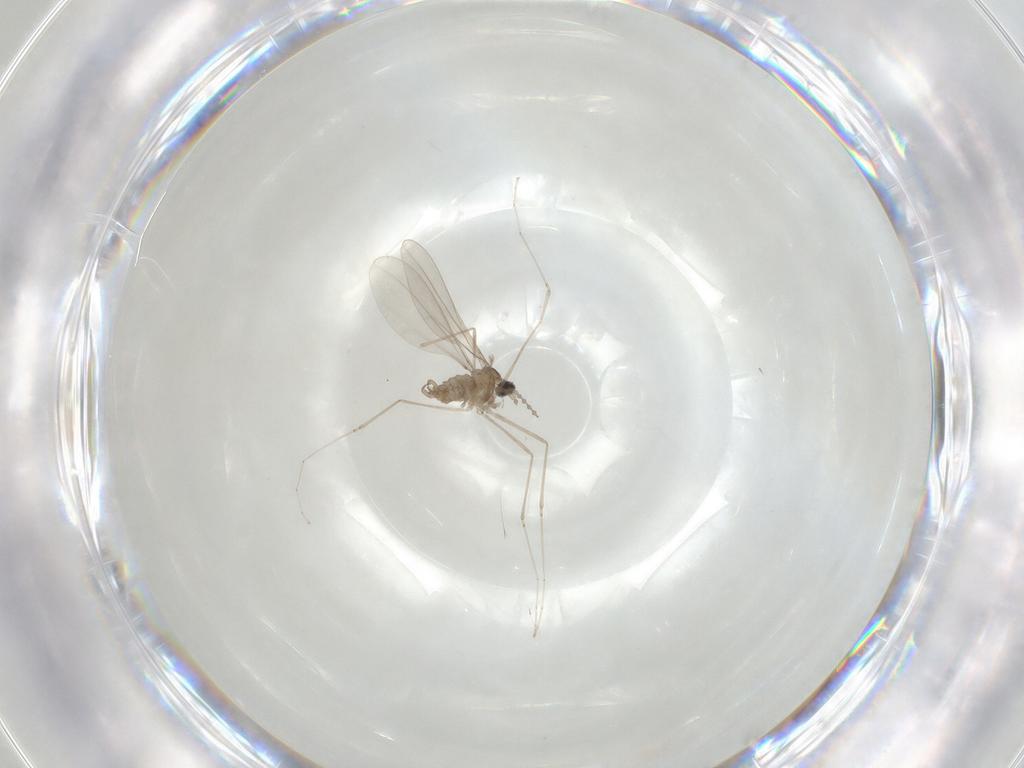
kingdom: Animalia
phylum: Arthropoda
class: Insecta
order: Diptera
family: Cecidomyiidae
